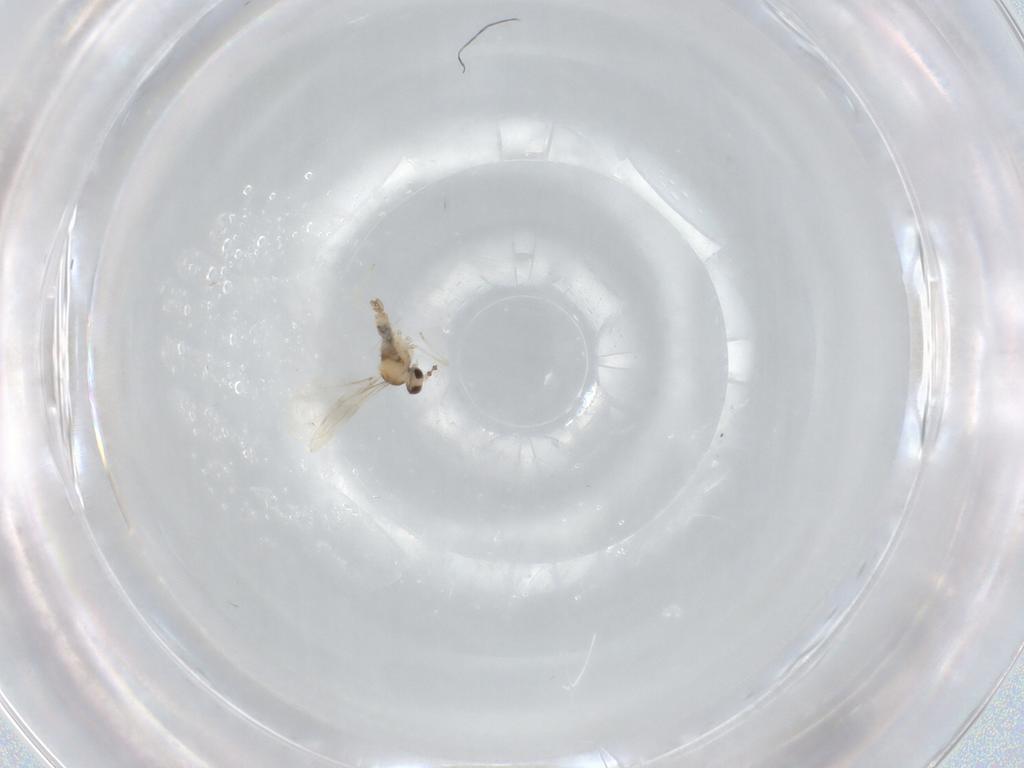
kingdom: Animalia
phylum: Arthropoda
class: Insecta
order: Diptera
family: Cecidomyiidae
